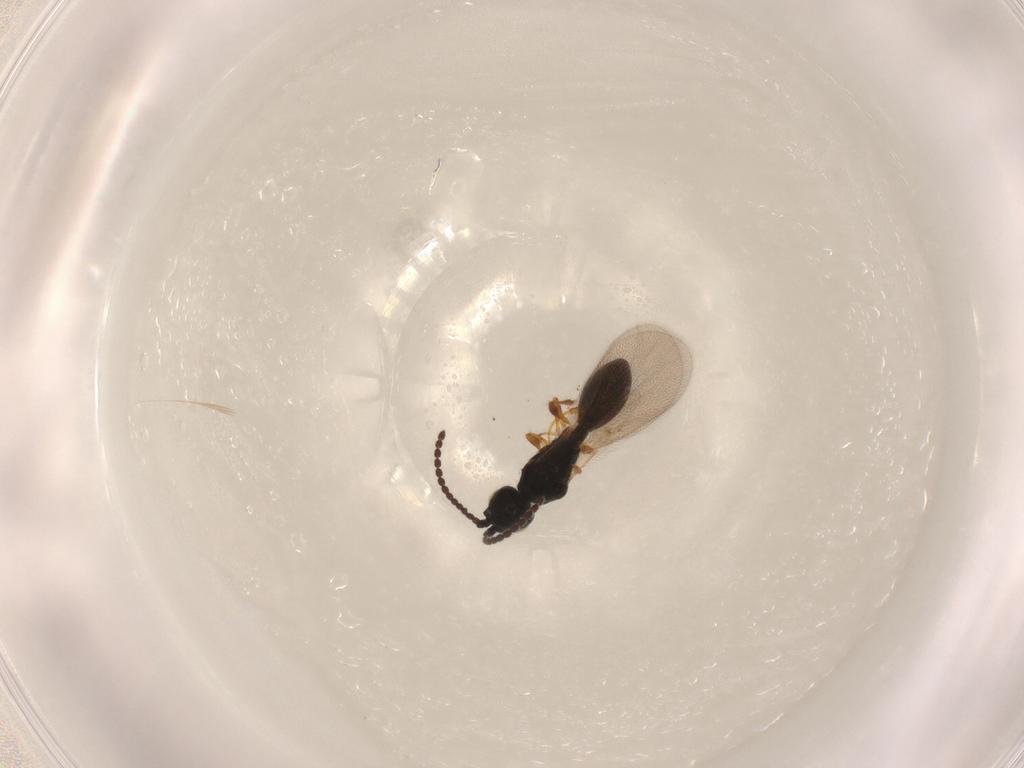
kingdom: Animalia
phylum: Arthropoda
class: Insecta
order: Hymenoptera
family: Diapriidae
